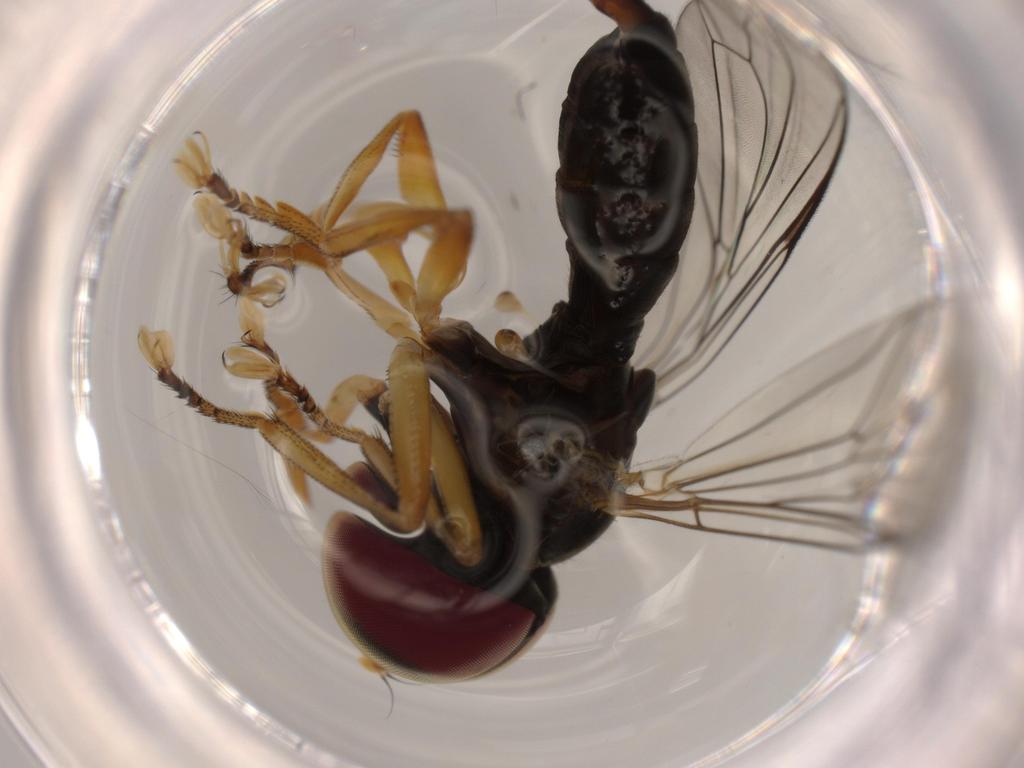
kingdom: Animalia
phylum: Arthropoda
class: Insecta
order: Diptera
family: Pipunculidae
